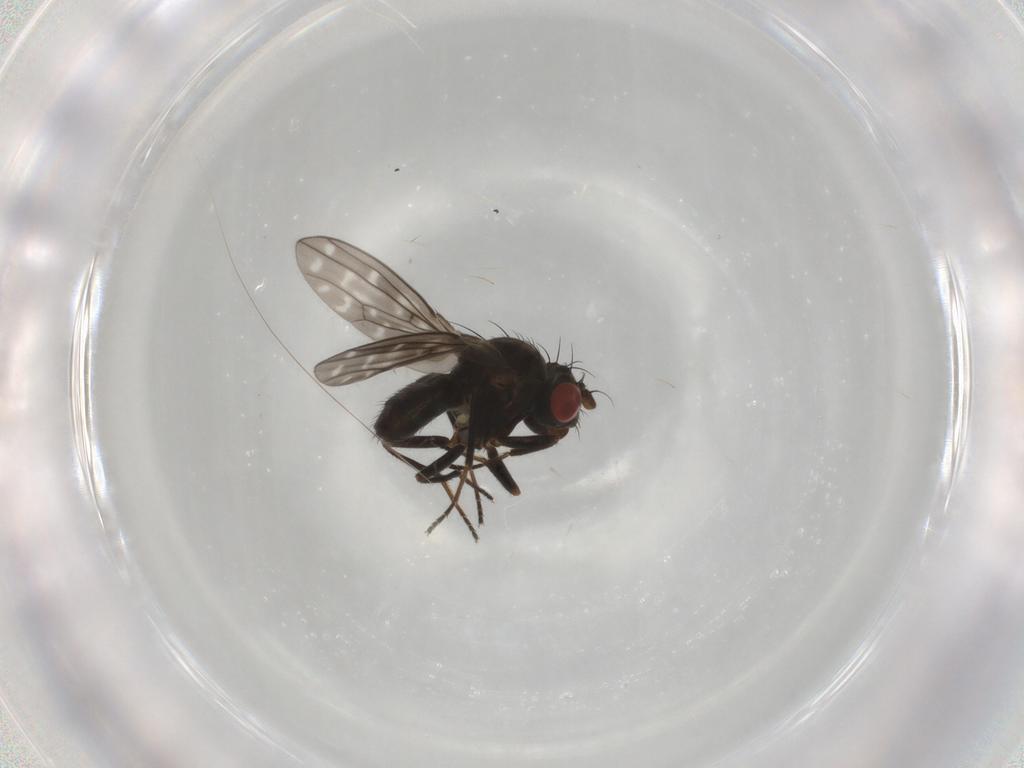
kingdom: Animalia
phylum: Arthropoda
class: Insecta
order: Diptera
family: Ephydridae
